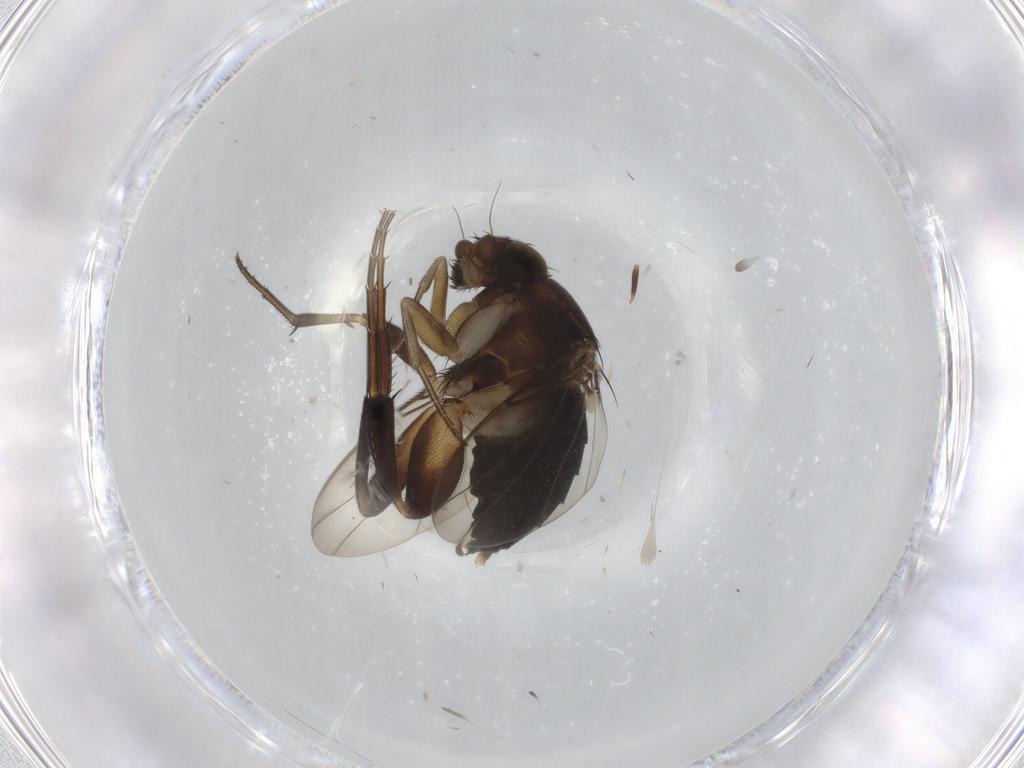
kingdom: Animalia
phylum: Arthropoda
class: Insecta
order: Diptera
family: Phoridae
